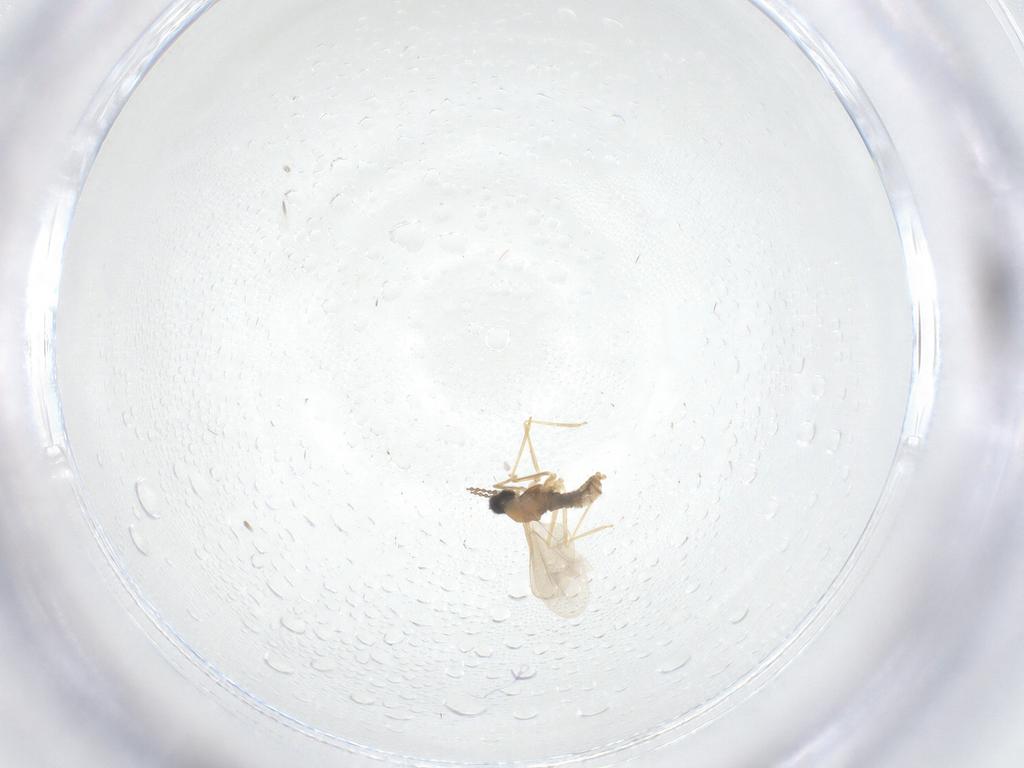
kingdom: Animalia
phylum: Arthropoda
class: Insecta
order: Diptera
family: Cecidomyiidae
